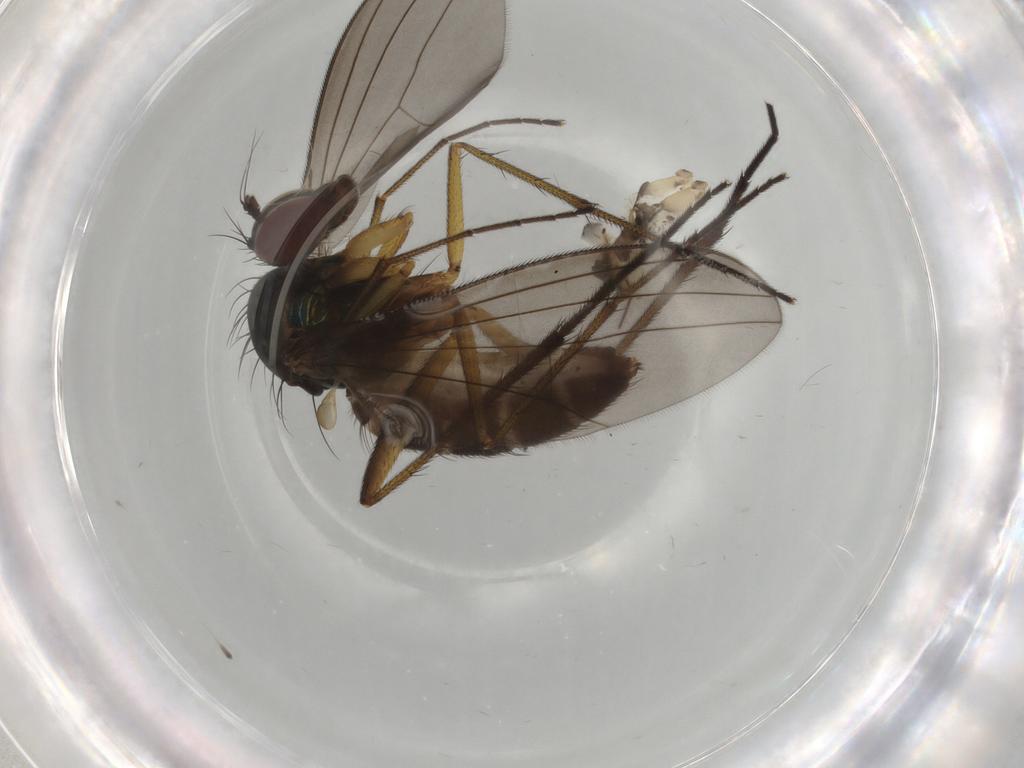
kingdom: Animalia
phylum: Arthropoda
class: Insecta
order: Diptera
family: Dolichopodidae
